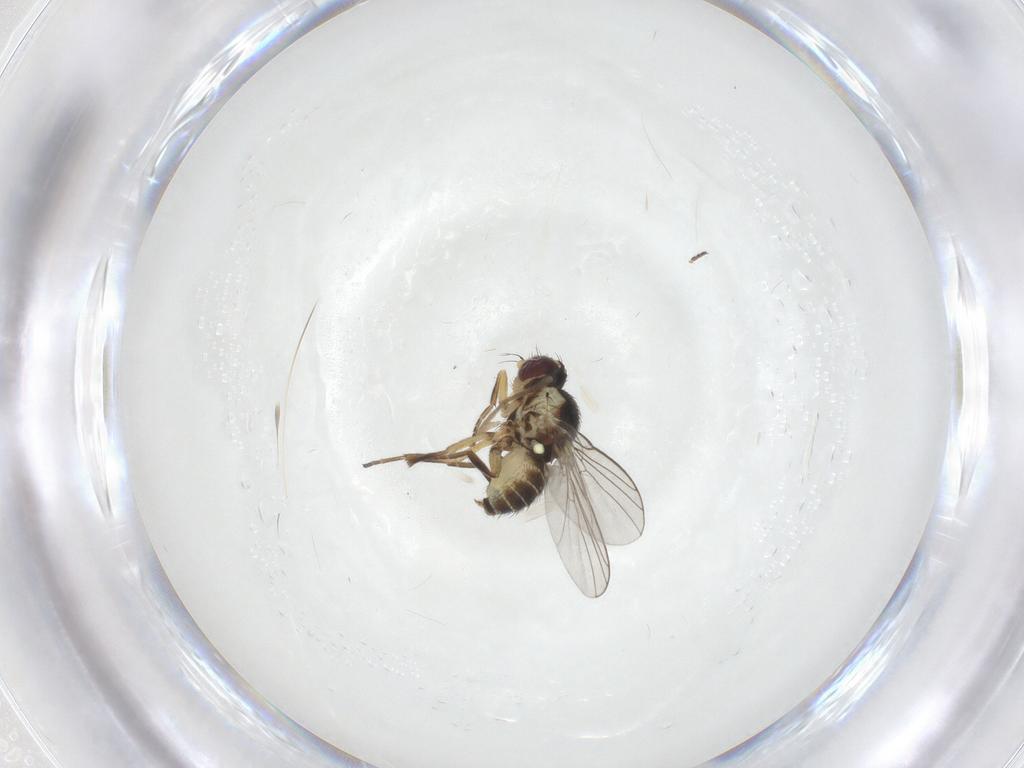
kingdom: Animalia
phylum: Arthropoda
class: Insecta
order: Diptera
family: Agromyzidae
